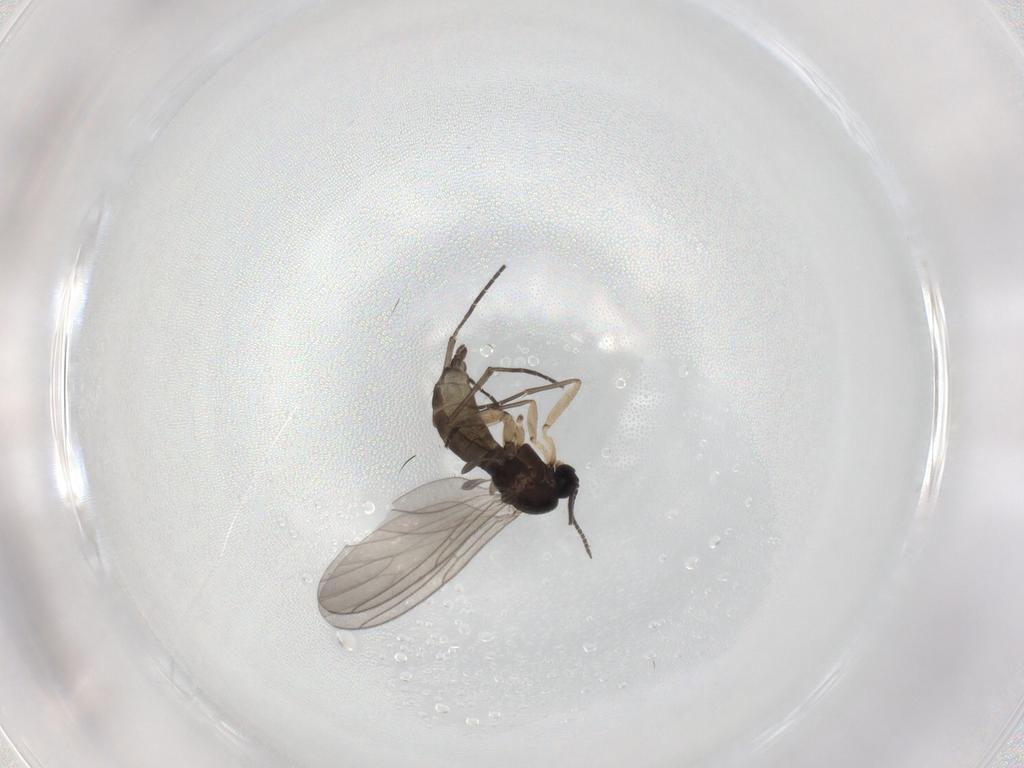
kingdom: Animalia
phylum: Arthropoda
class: Insecta
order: Diptera
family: Sciaridae
